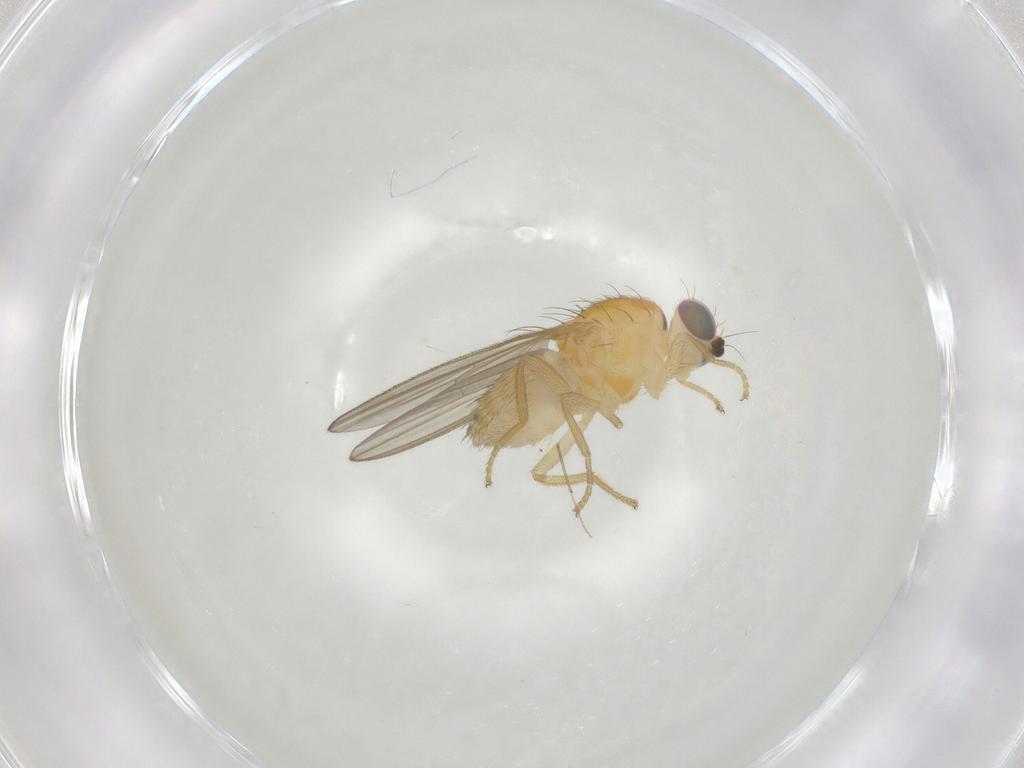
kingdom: Animalia
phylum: Arthropoda
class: Insecta
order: Diptera
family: Chyromyidae
